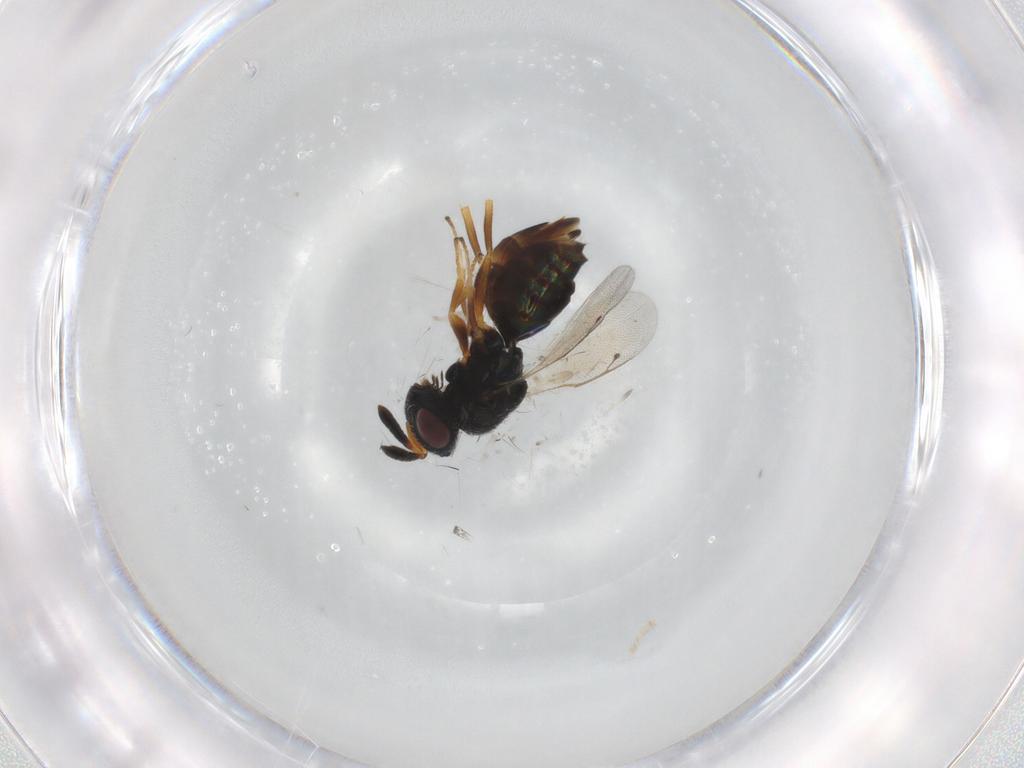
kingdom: Animalia
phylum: Arthropoda
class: Insecta
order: Hymenoptera
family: Pteromalidae
